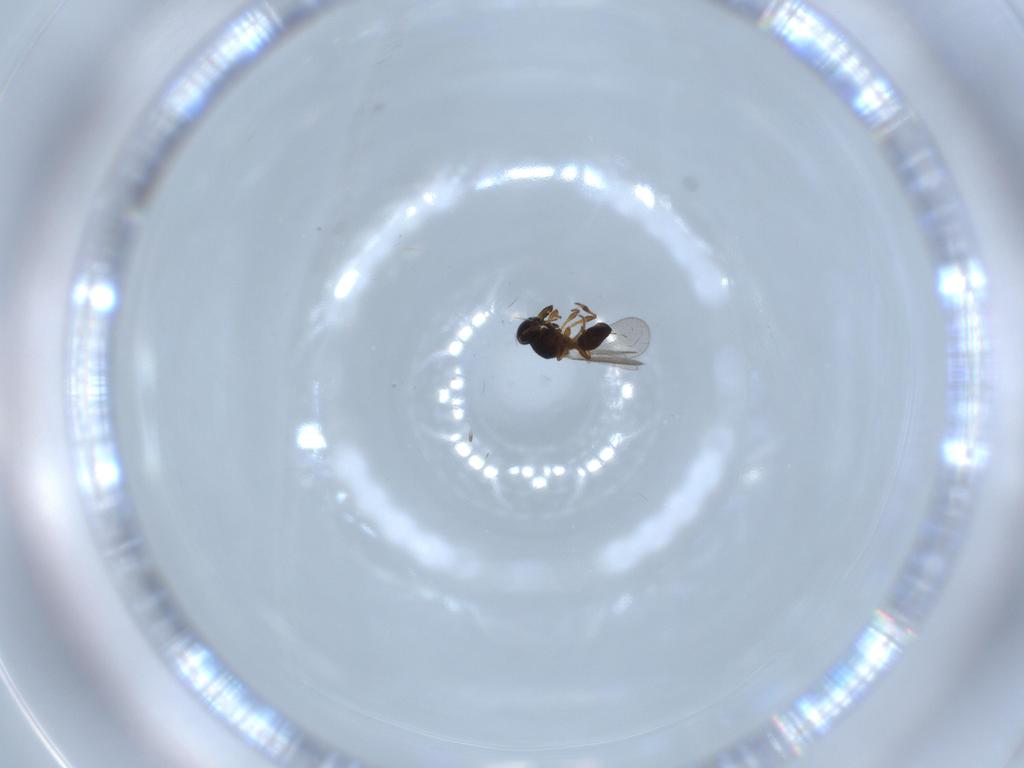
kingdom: Animalia
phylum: Arthropoda
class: Insecta
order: Hymenoptera
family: Platygastridae
